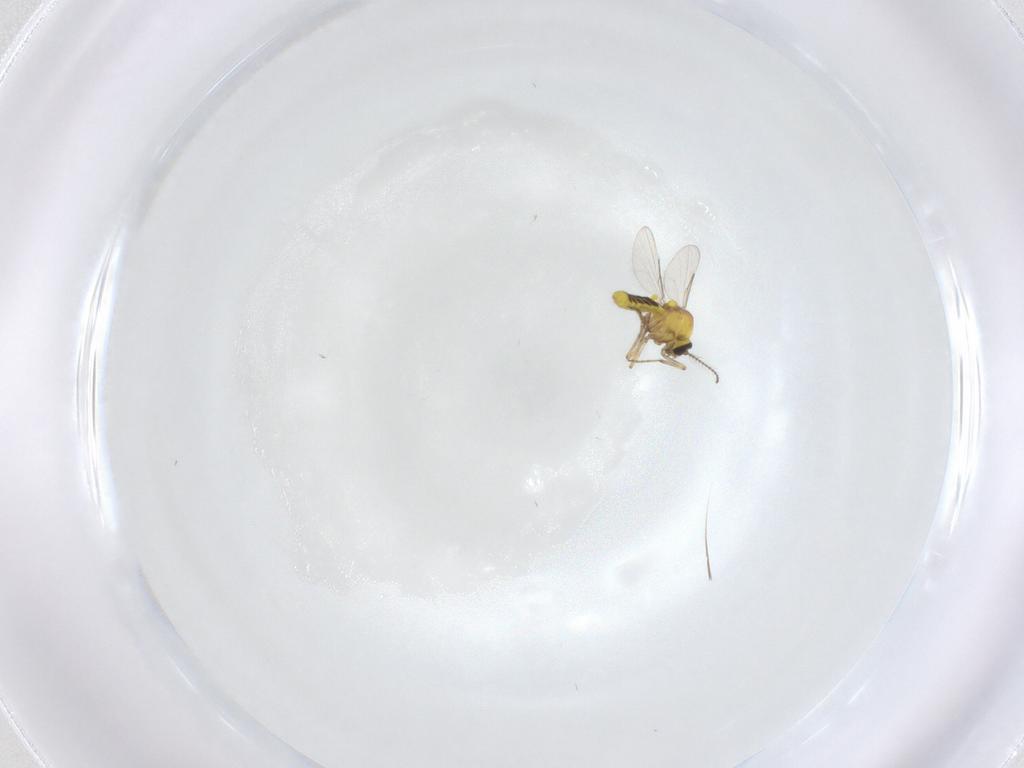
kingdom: Animalia
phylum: Arthropoda
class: Insecta
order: Diptera
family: Ceratopogonidae
